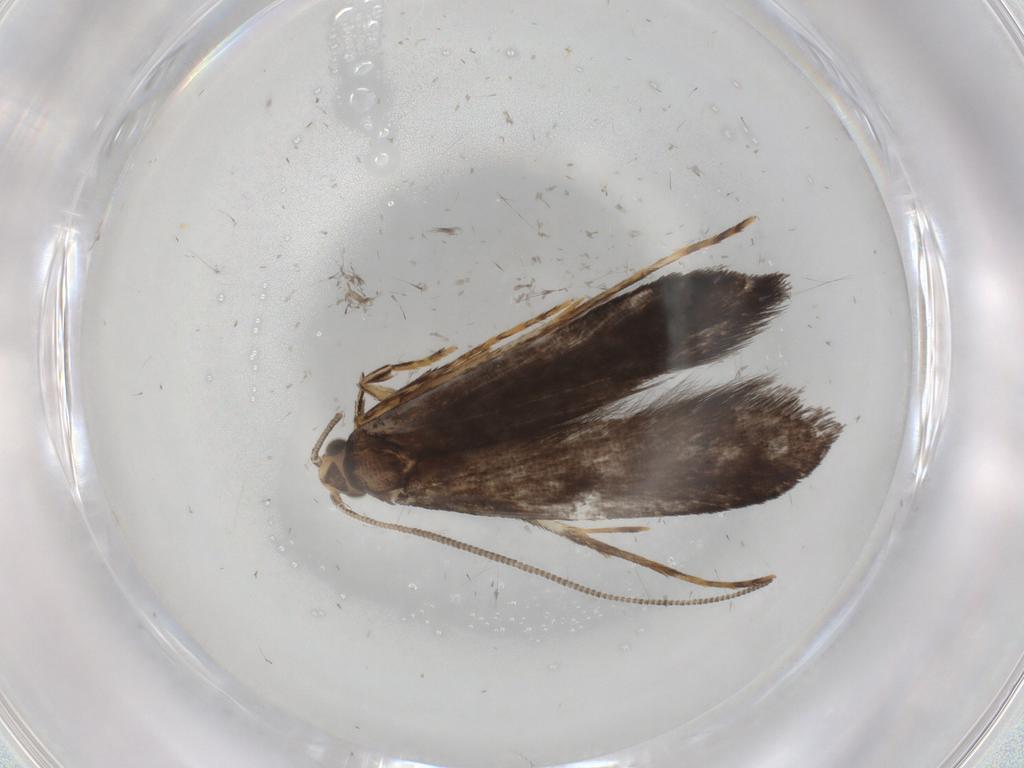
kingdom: Animalia
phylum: Arthropoda
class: Insecta
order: Lepidoptera
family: Tineidae
